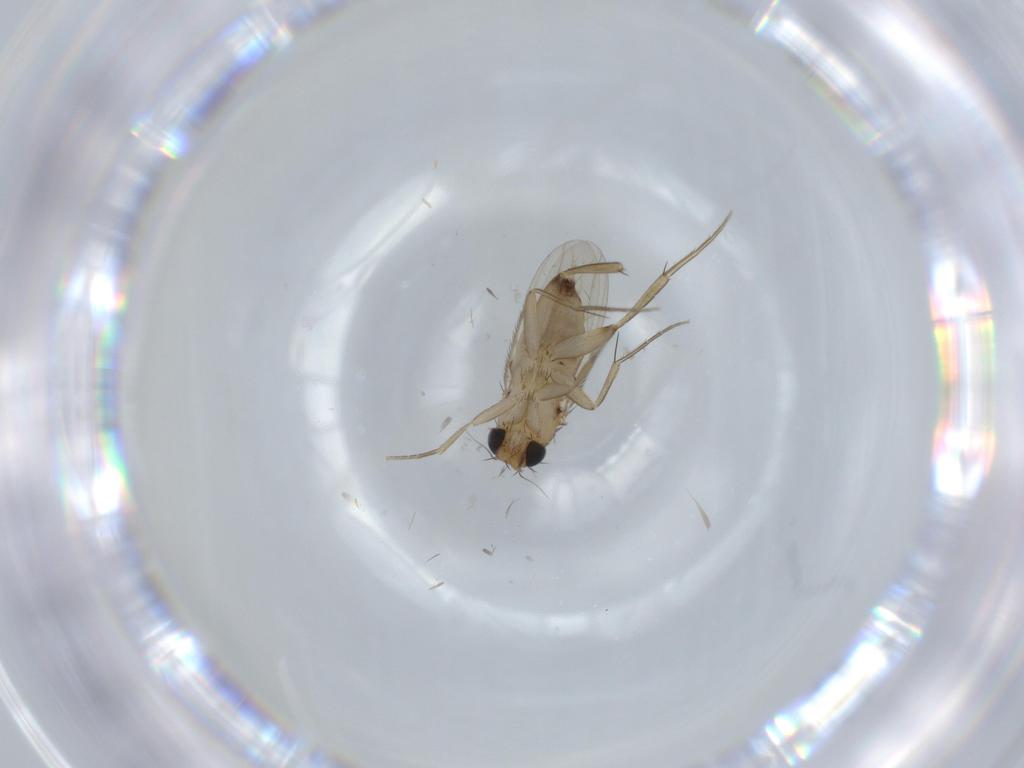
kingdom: Animalia
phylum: Arthropoda
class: Insecta
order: Diptera
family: Phoridae
